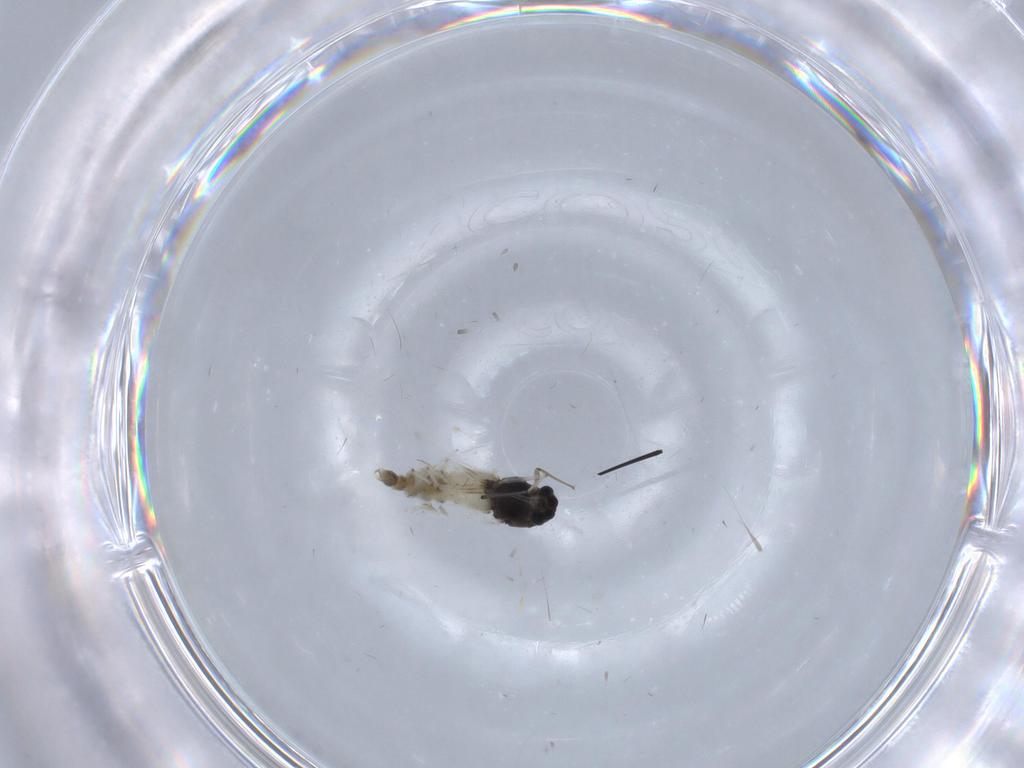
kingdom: Animalia
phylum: Arthropoda
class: Insecta
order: Diptera
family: Chironomidae
